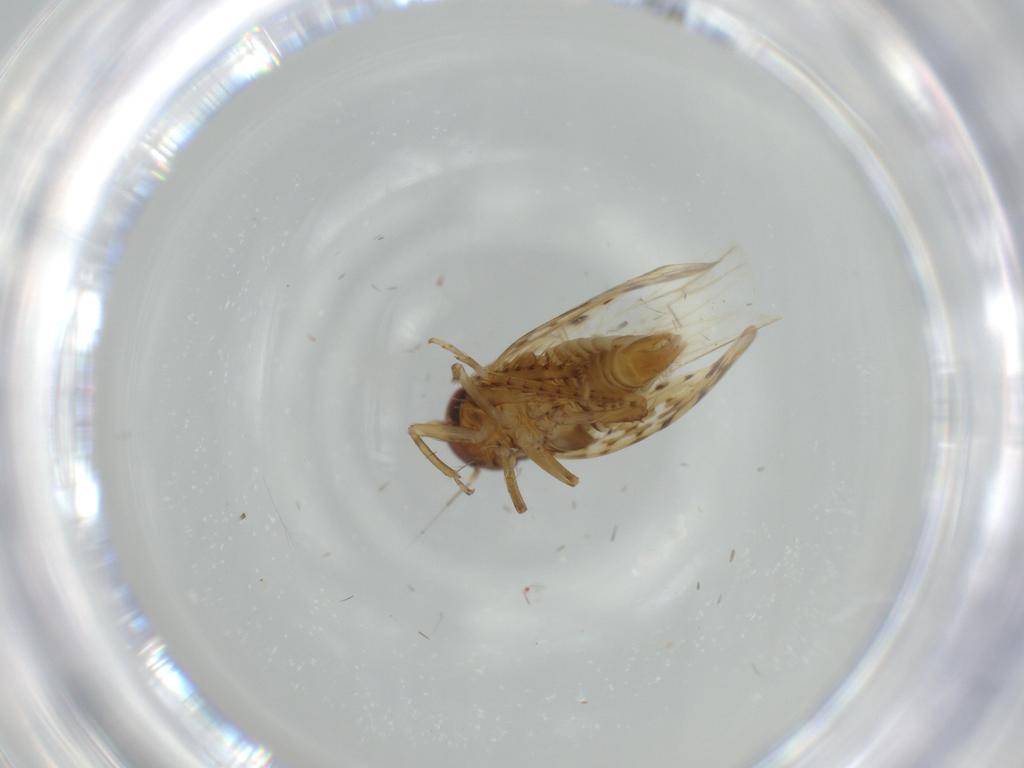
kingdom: Animalia
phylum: Arthropoda
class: Insecta
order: Hemiptera
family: Cicadellidae
